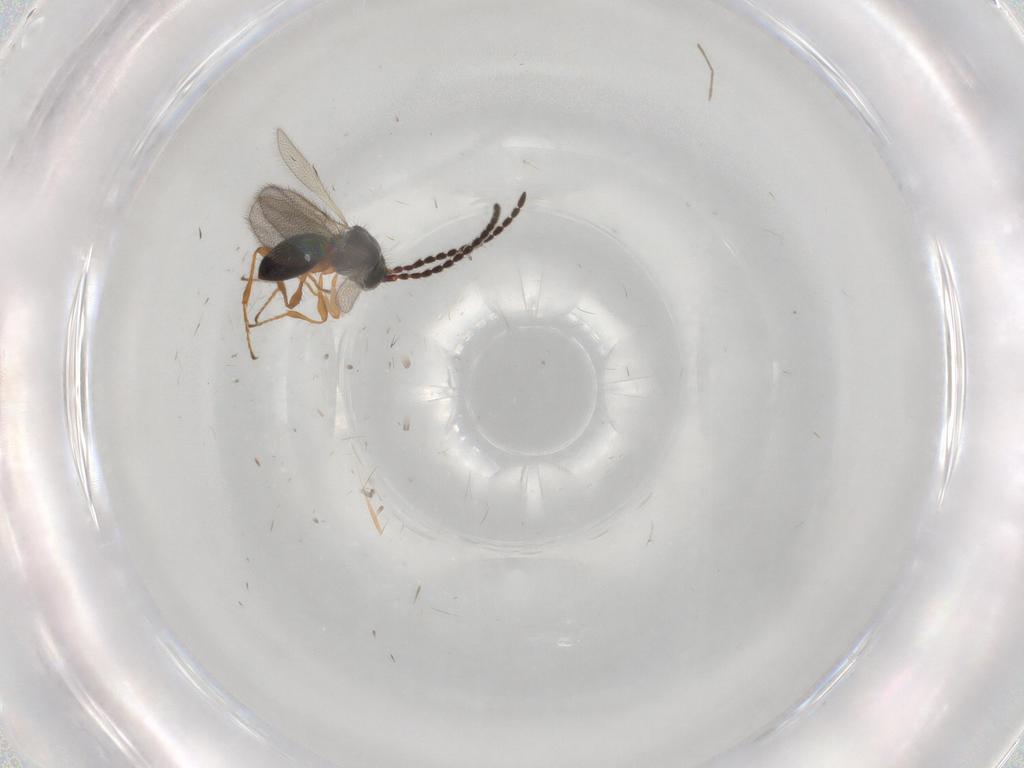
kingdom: Animalia
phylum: Arthropoda
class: Insecta
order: Hymenoptera
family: Diapriidae
